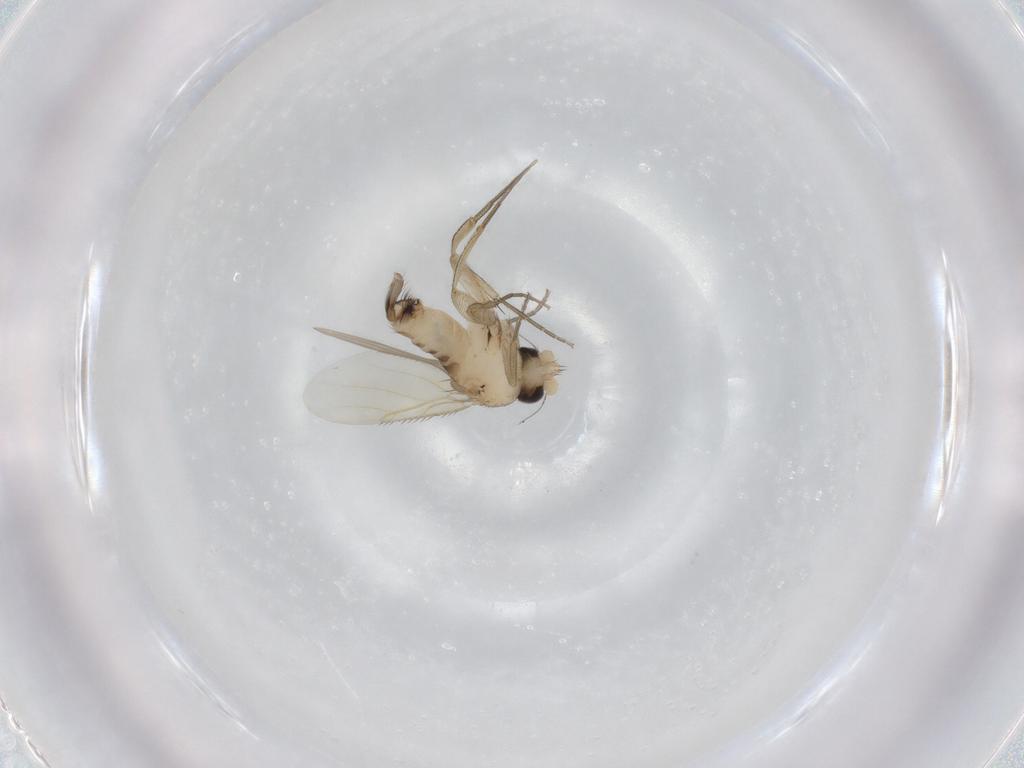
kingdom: Animalia
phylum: Arthropoda
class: Insecta
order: Diptera
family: Phoridae
